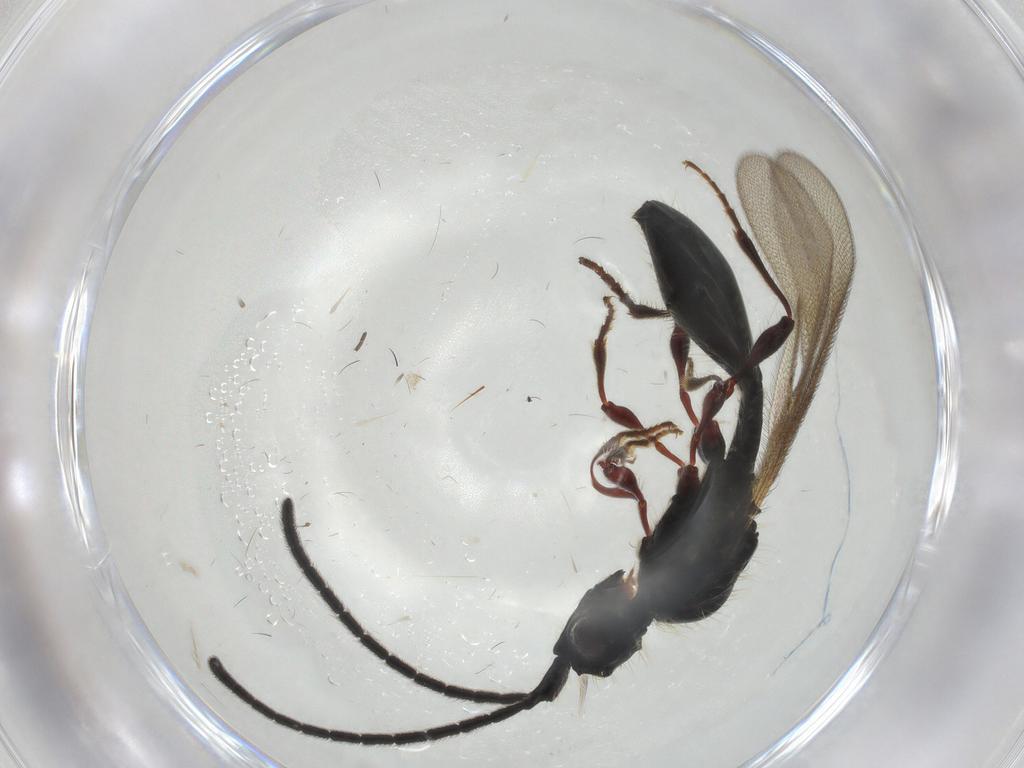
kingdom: Animalia
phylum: Arthropoda
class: Insecta
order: Hymenoptera
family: Diapriidae
